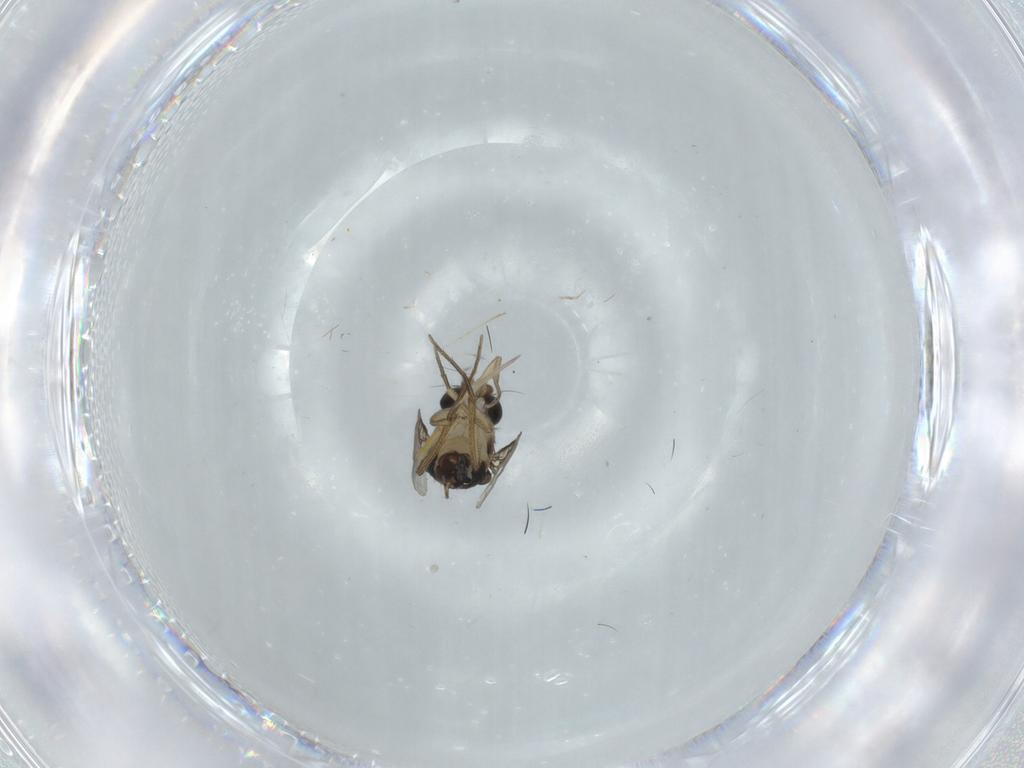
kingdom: Animalia
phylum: Arthropoda
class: Insecta
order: Diptera
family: Phoridae
